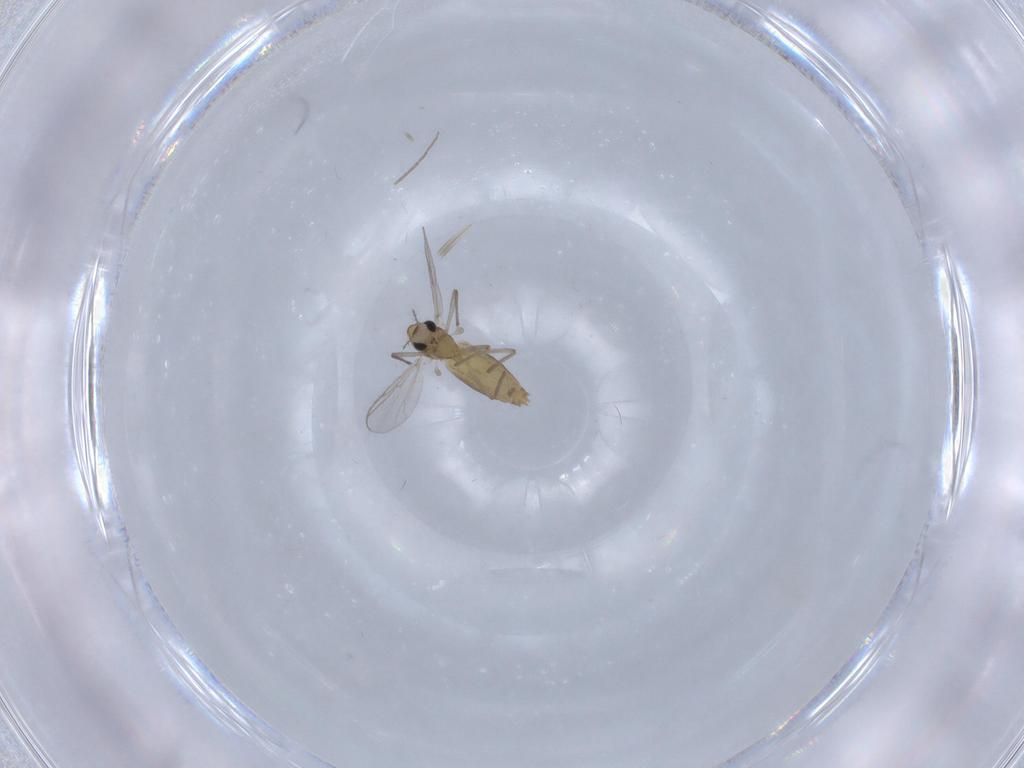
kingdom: Animalia
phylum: Arthropoda
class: Insecta
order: Diptera
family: Chironomidae
